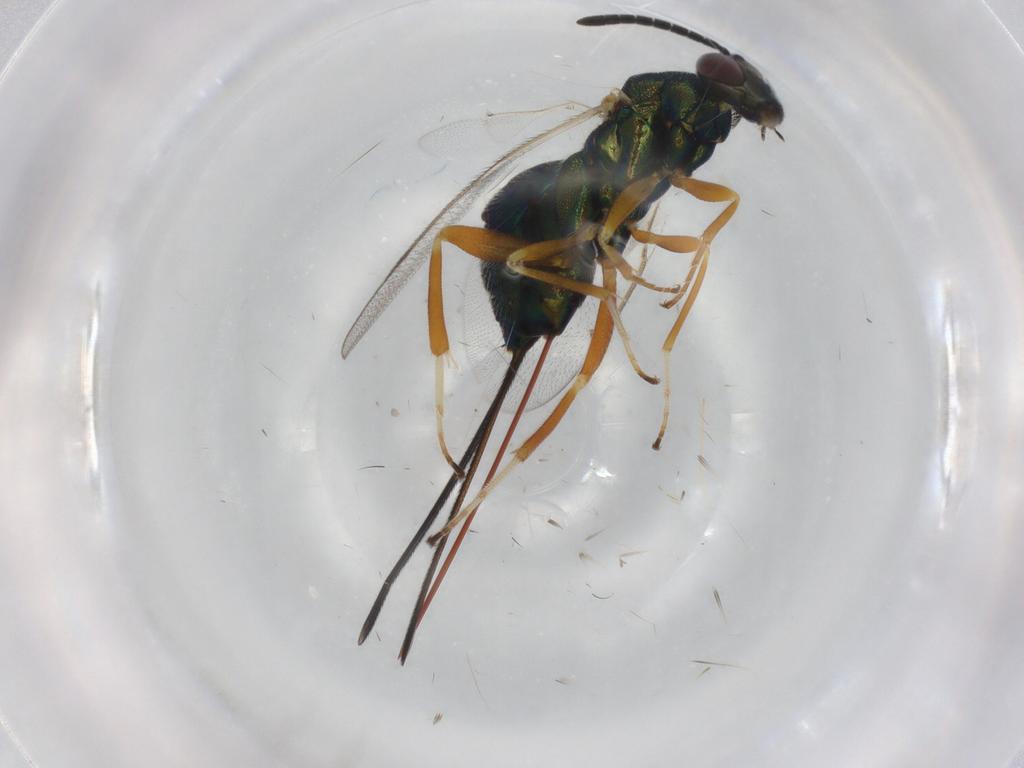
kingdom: Animalia
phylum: Arthropoda
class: Insecta
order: Hymenoptera
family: Torymidae
